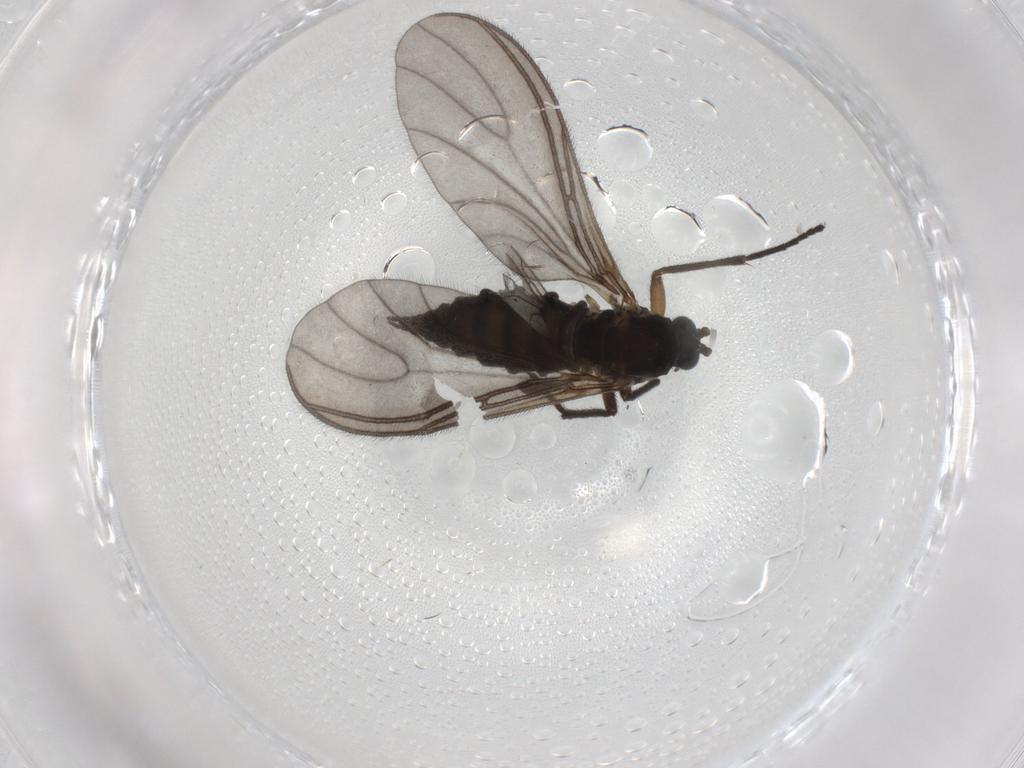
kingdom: Animalia
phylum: Arthropoda
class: Insecta
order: Diptera
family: Sciaridae
